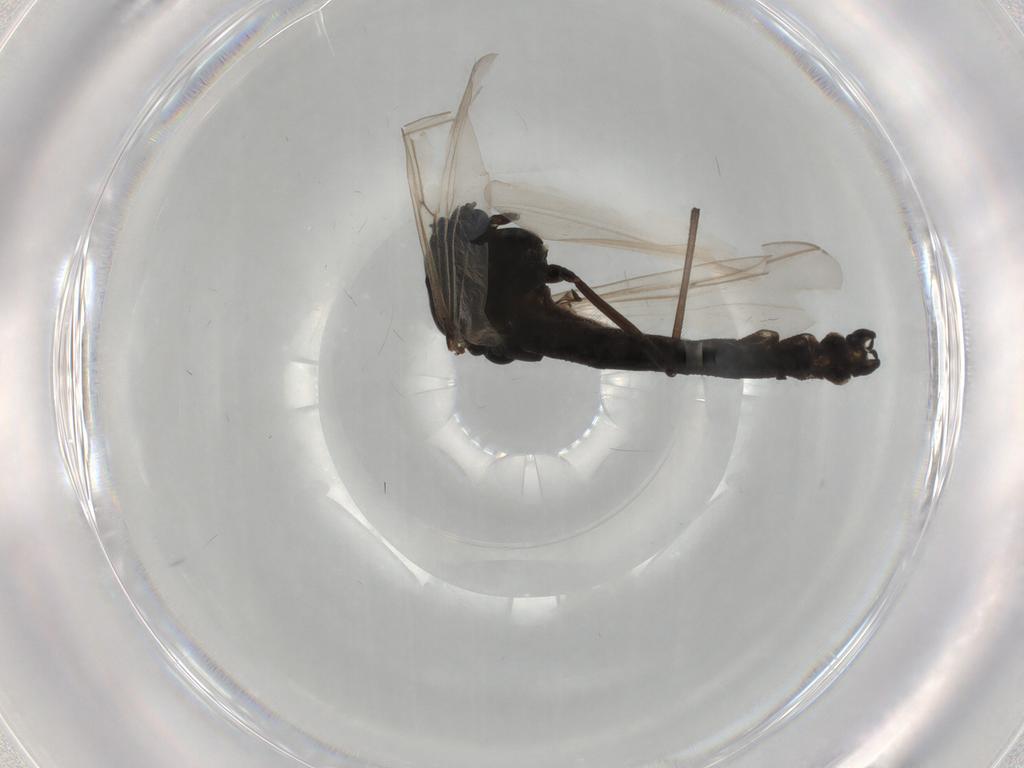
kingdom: Animalia
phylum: Arthropoda
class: Insecta
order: Diptera
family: Chironomidae
